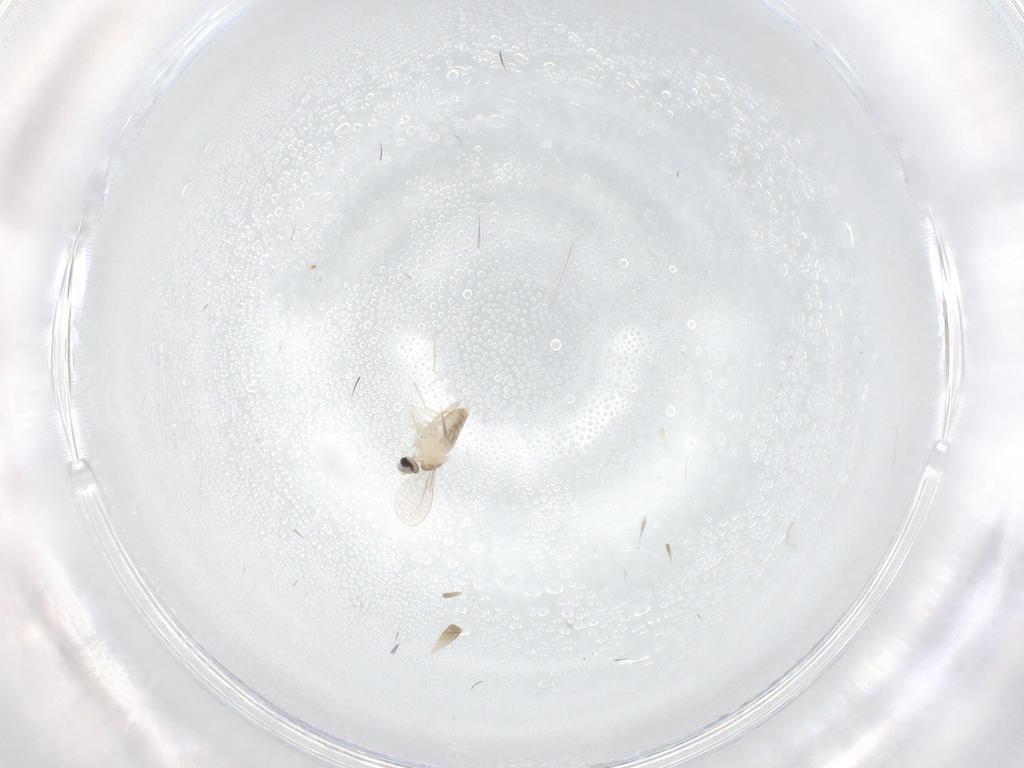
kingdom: Animalia
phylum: Arthropoda
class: Insecta
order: Diptera
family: Cecidomyiidae
